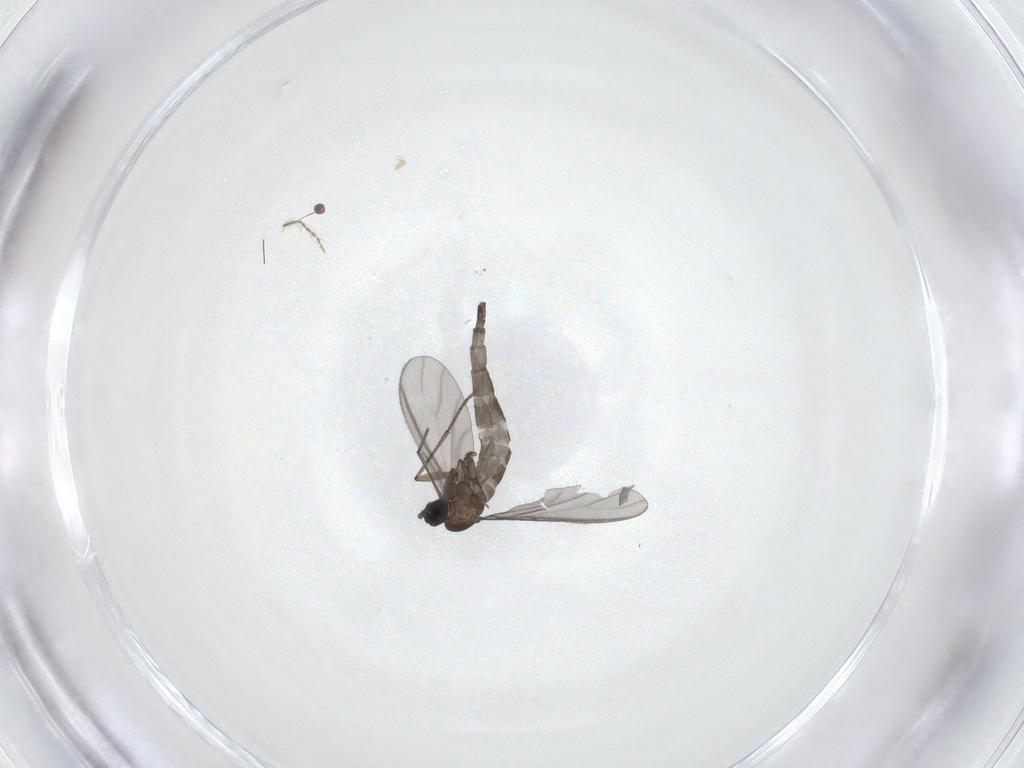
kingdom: Animalia
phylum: Arthropoda
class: Insecta
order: Diptera
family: Sciaridae
